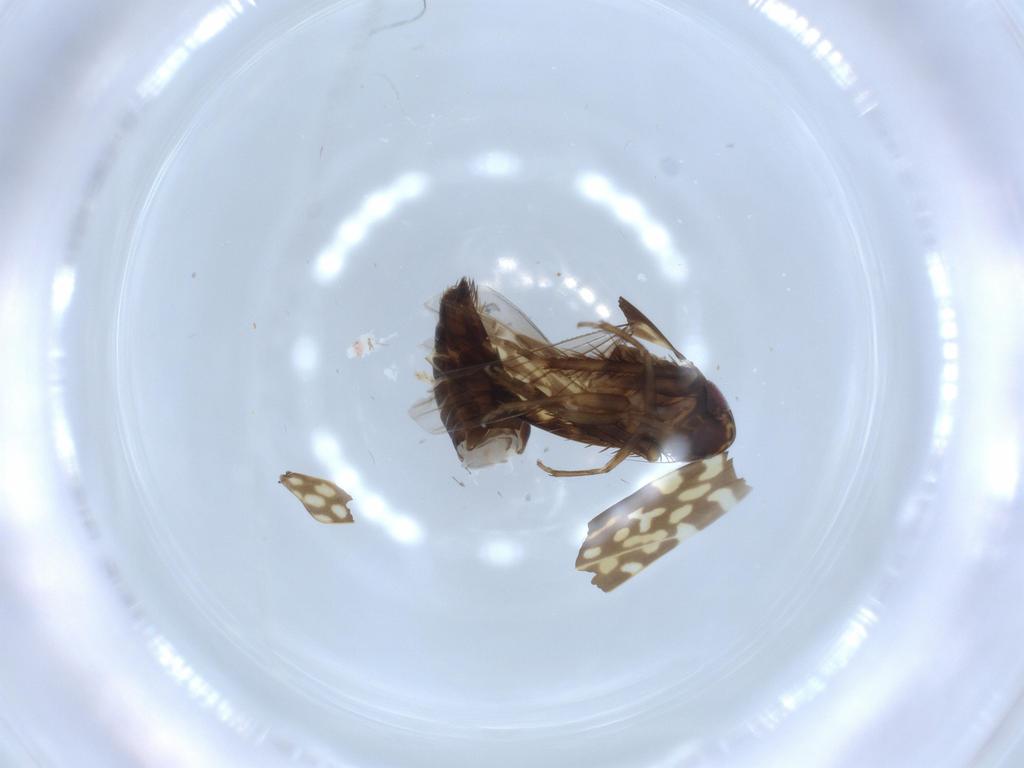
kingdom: Animalia
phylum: Arthropoda
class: Insecta
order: Hemiptera
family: Cicadellidae
